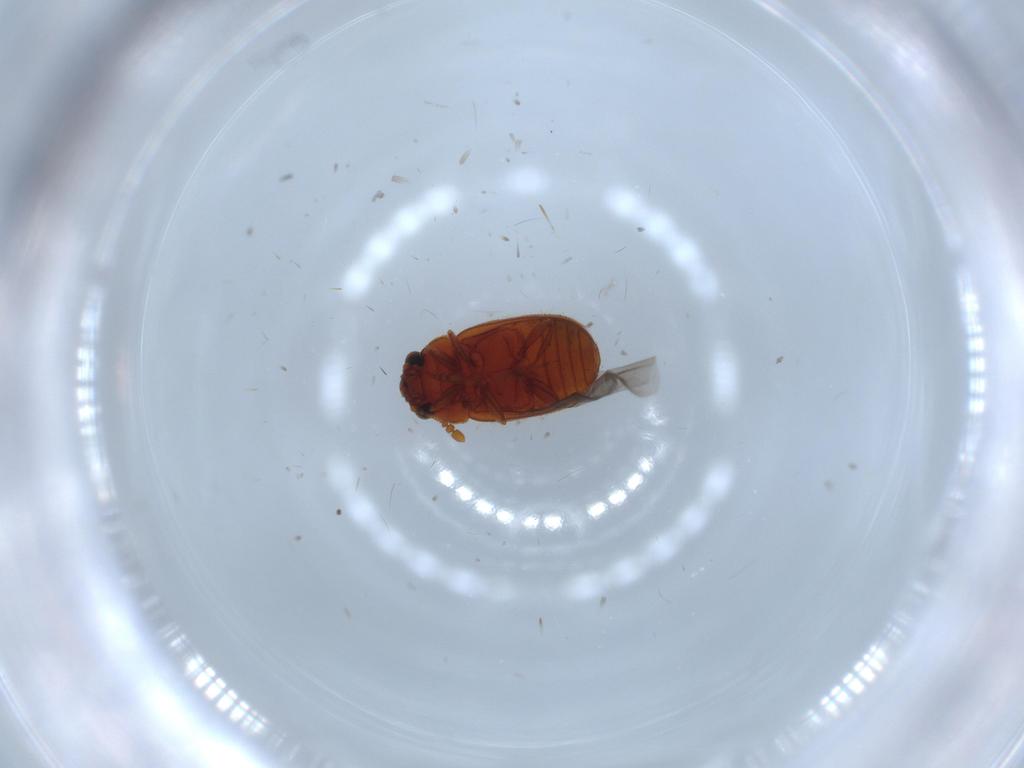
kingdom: Animalia
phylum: Arthropoda
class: Insecta
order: Coleoptera
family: Sphindidae
